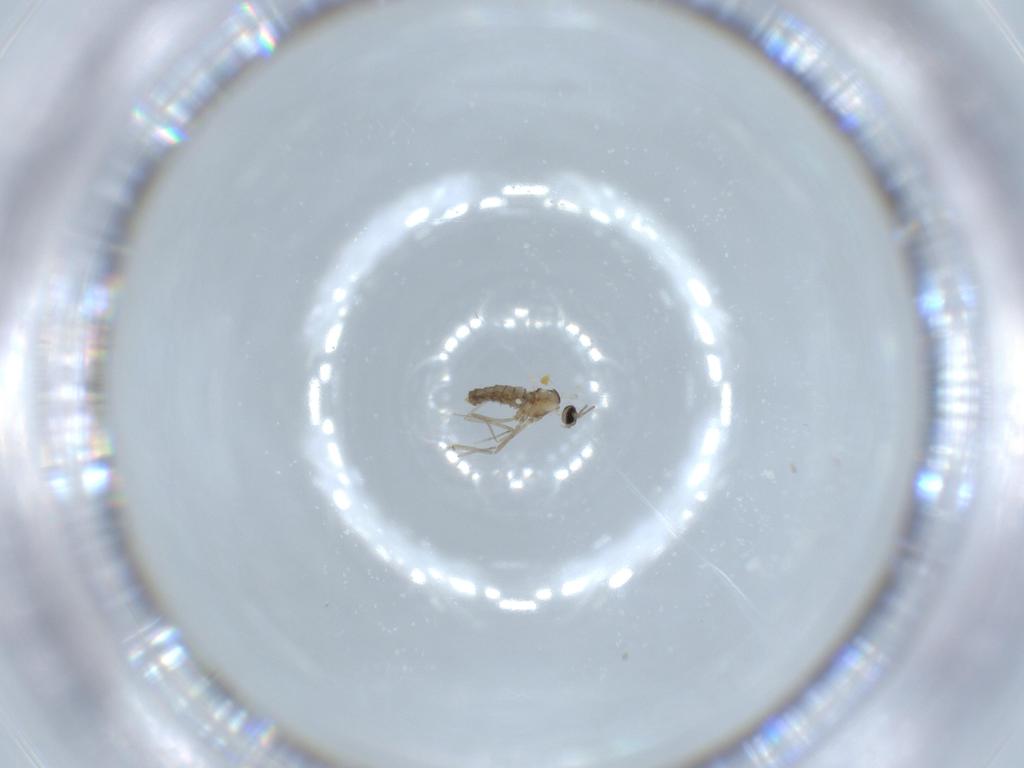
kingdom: Animalia
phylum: Arthropoda
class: Insecta
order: Diptera
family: Cecidomyiidae
